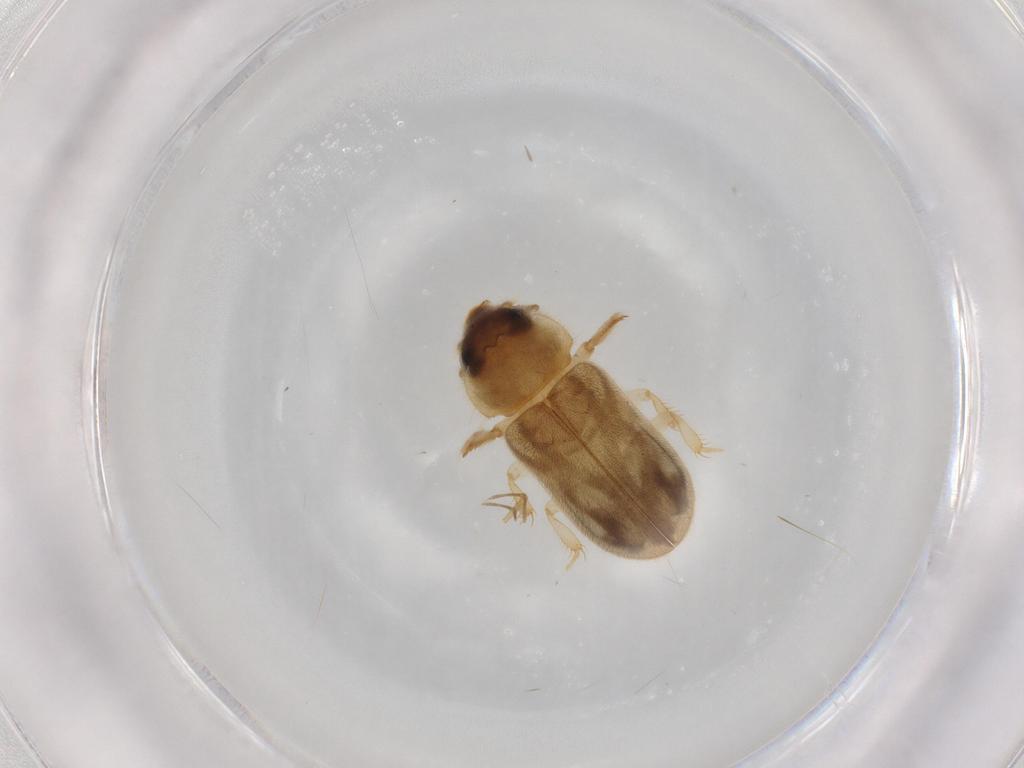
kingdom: Animalia
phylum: Arthropoda
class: Insecta
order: Coleoptera
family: Heteroceridae
